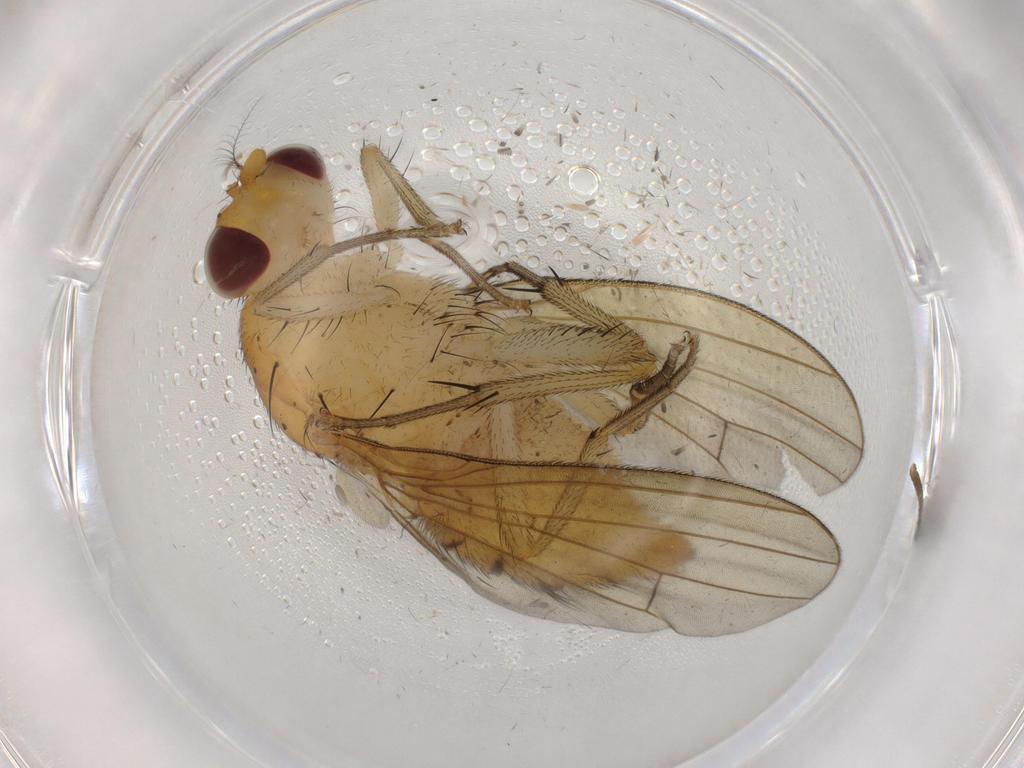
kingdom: Animalia
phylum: Arthropoda
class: Insecta
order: Diptera
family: Cecidomyiidae
